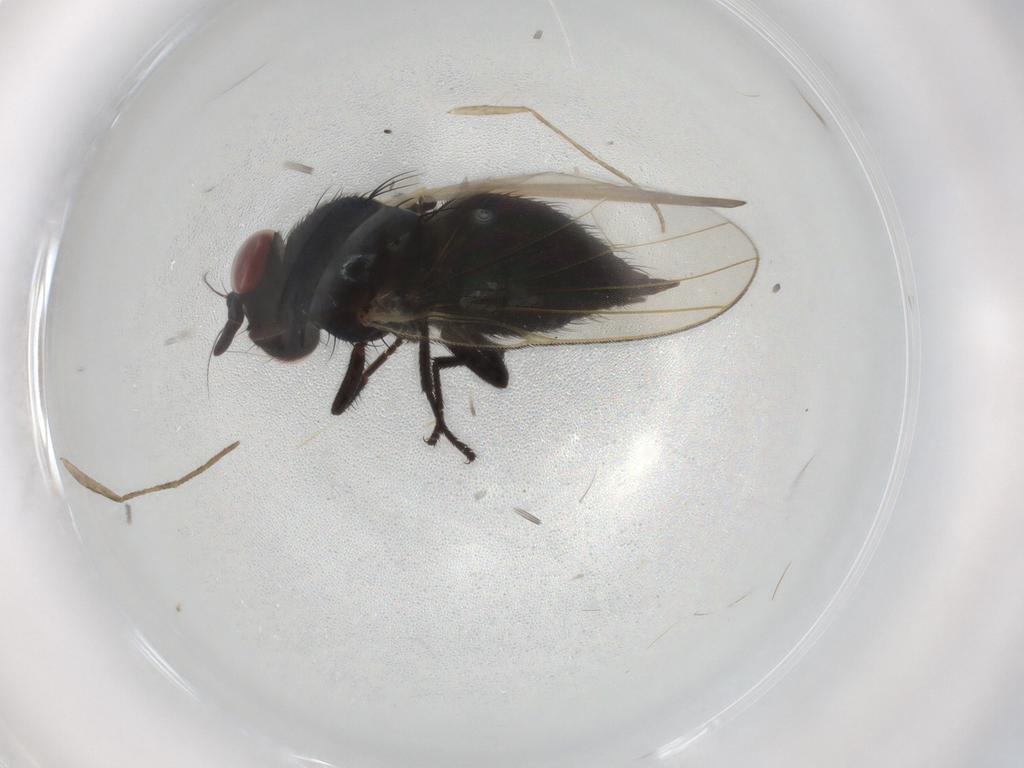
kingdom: Animalia
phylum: Arthropoda
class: Insecta
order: Diptera
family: Lonchaeidae
